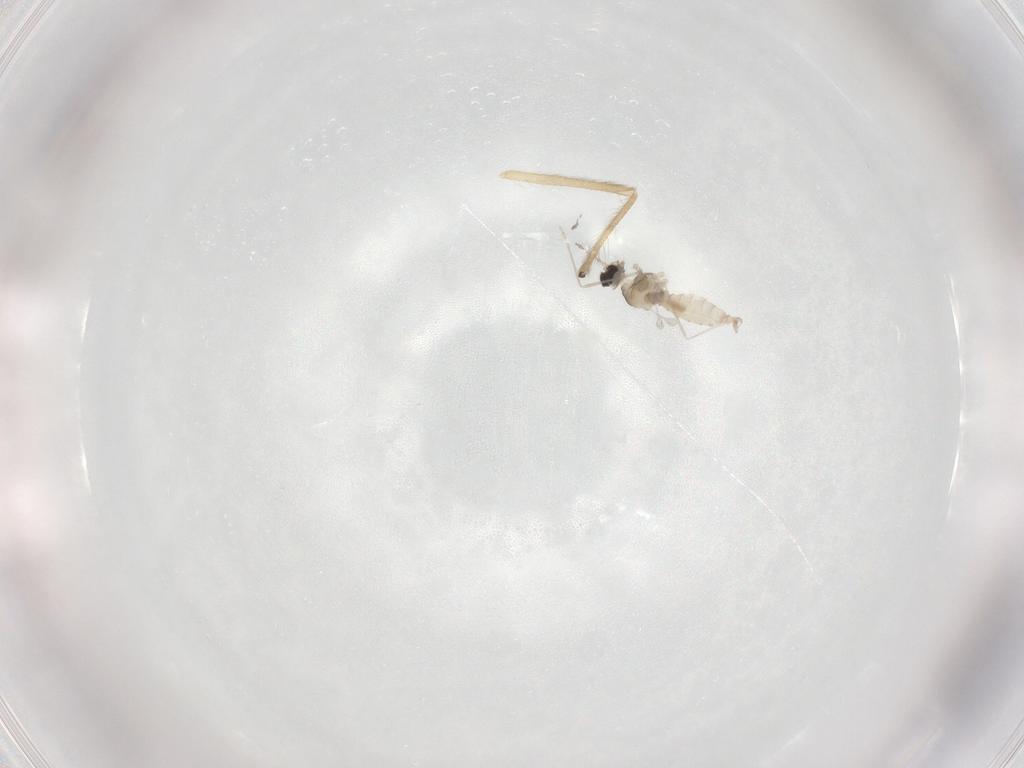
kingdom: Animalia
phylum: Arthropoda
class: Insecta
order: Diptera
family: Cecidomyiidae
